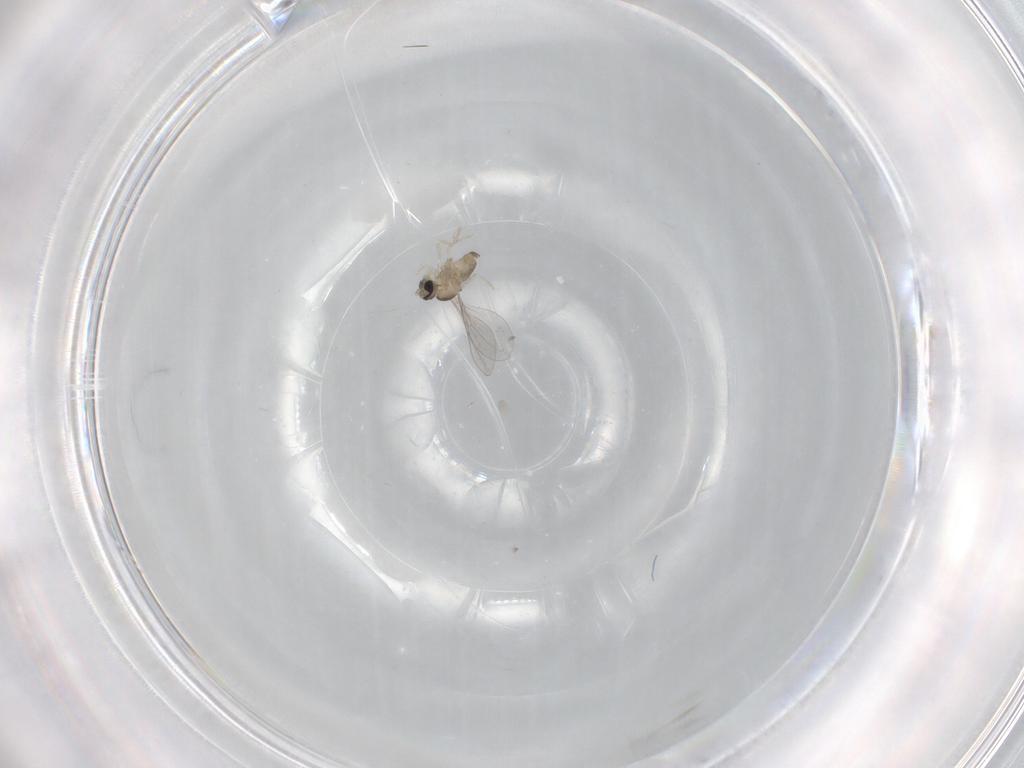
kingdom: Animalia
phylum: Arthropoda
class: Insecta
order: Diptera
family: Cecidomyiidae
